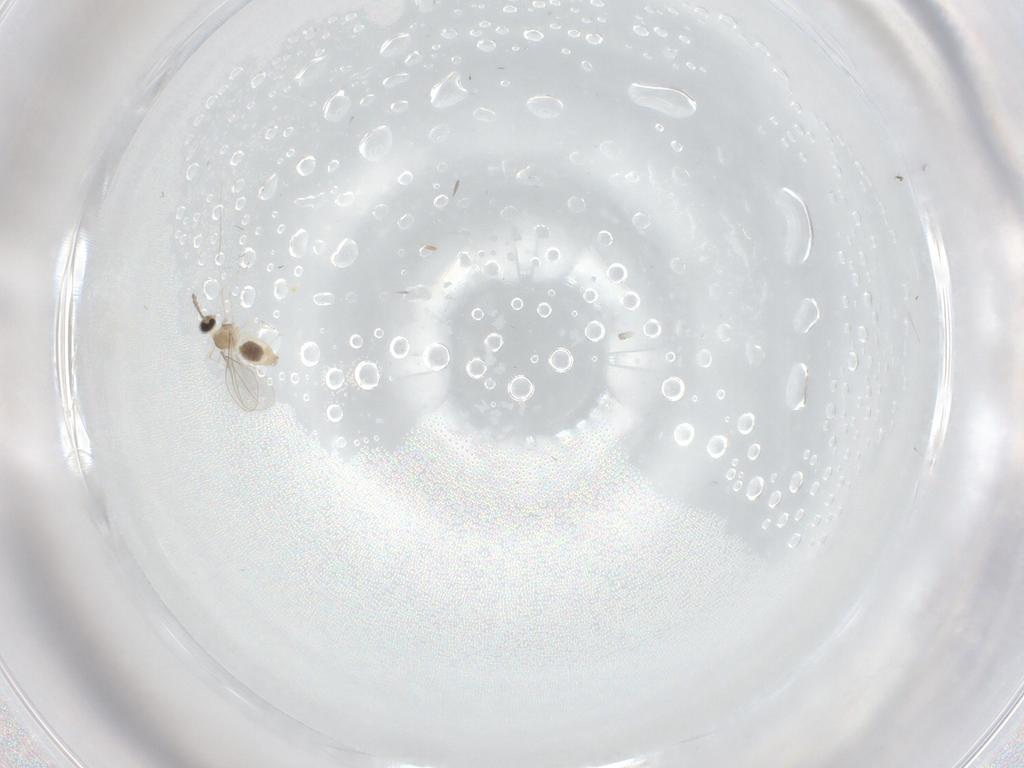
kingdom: Animalia
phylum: Arthropoda
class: Insecta
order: Diptera
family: Cecidomyiidae
